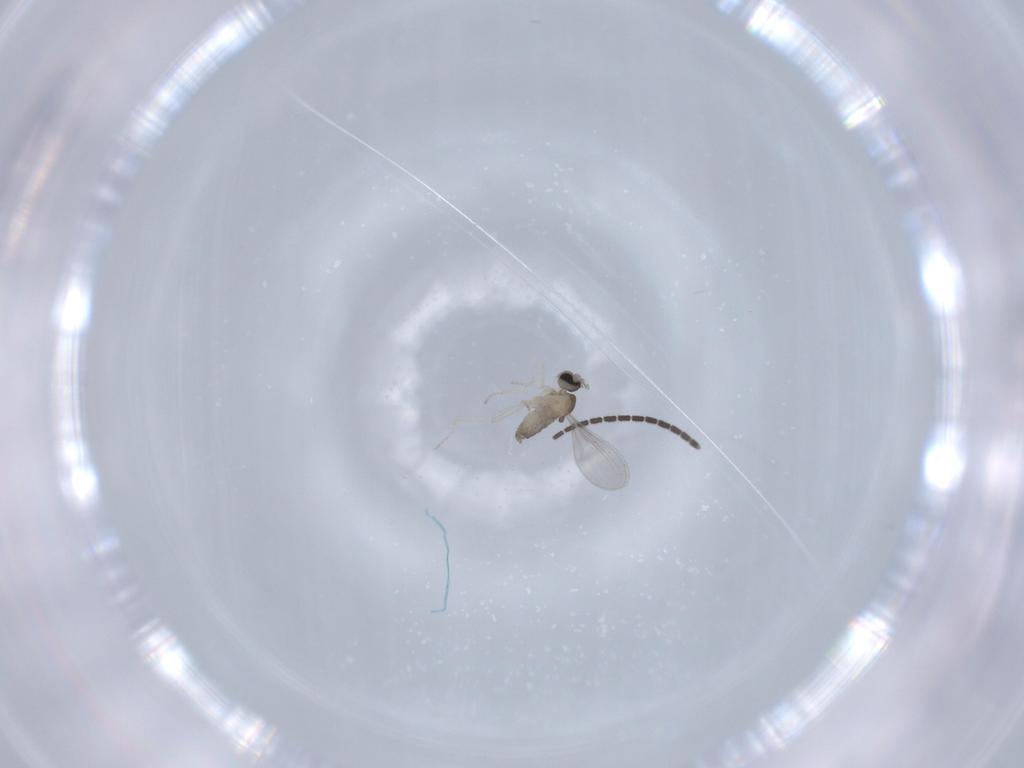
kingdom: Animalia
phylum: Arthropoda
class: Insecta
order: Diptera
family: Sciaridae
